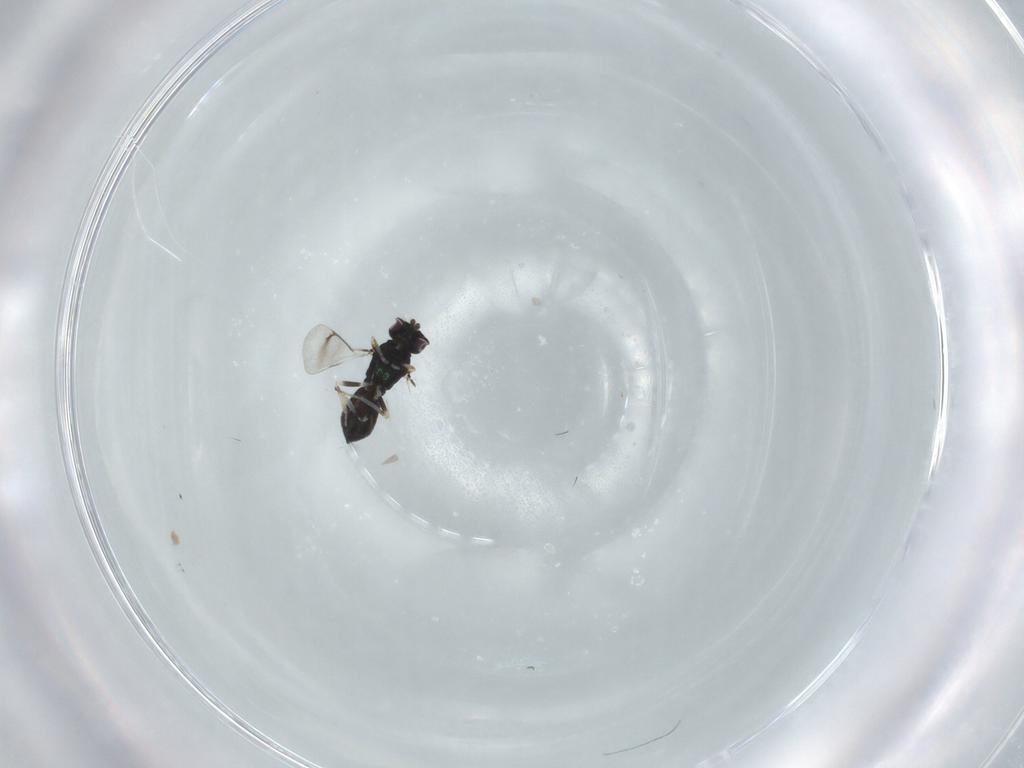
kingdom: Animalia
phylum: Arthropoda
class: Insecta
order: Hymenoptera
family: Eulophidae
